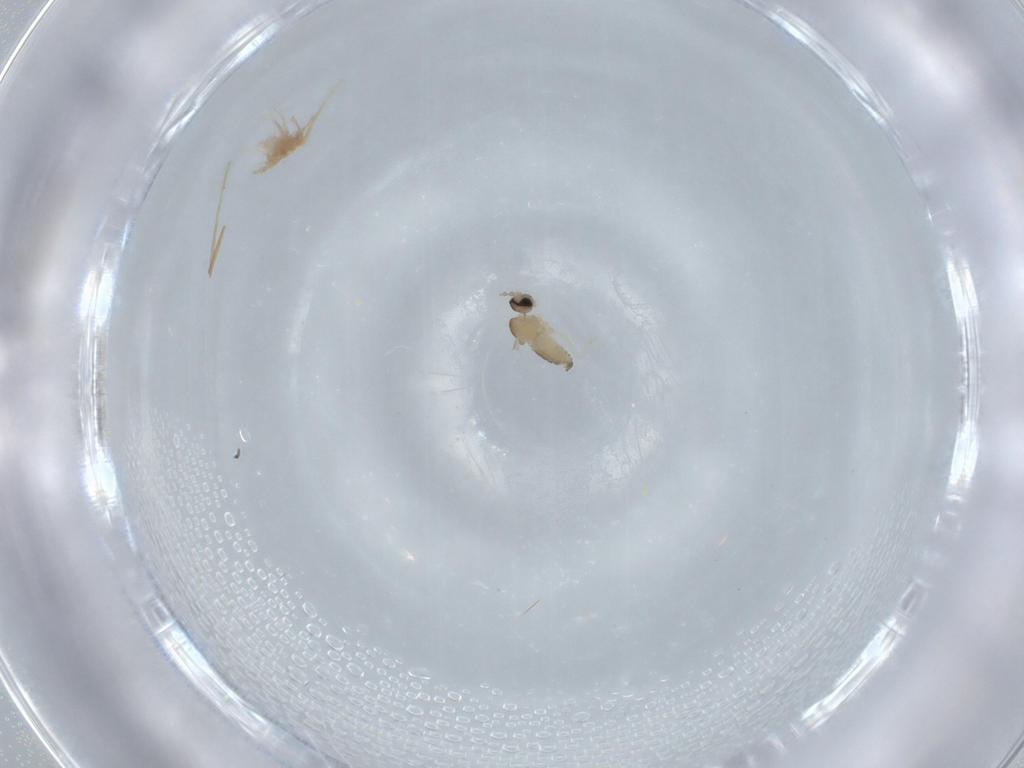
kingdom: Animalia
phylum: Arthropoda
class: Insecta
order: Diptera
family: Cecidomyiidae
